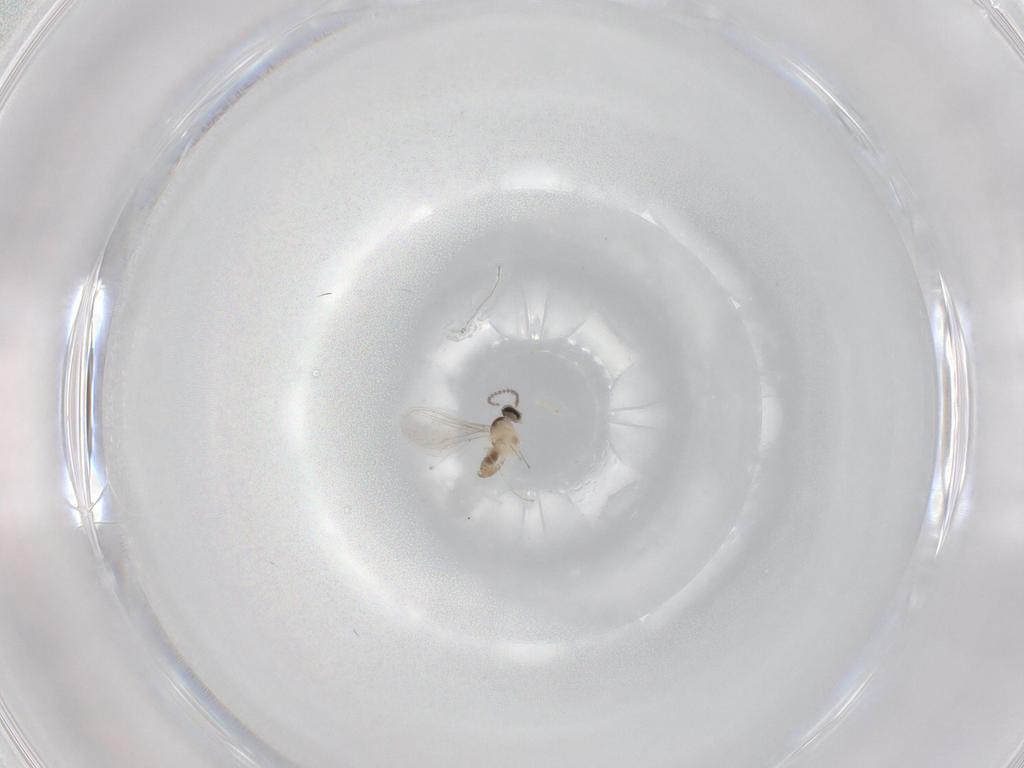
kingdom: Animalia
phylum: Arthropoda
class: Insecta
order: Diptera
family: Cecidomyiidae
